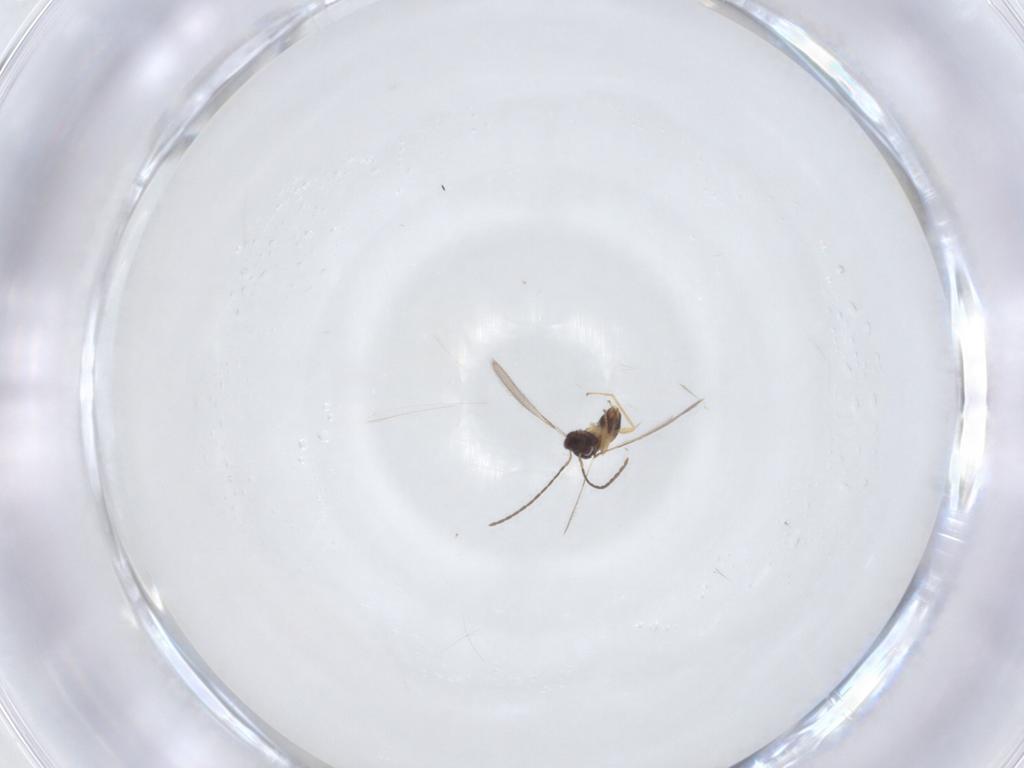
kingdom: Animalia
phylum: Arthropoda
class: Insecta
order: Hymenoptera
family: Mymaridae
